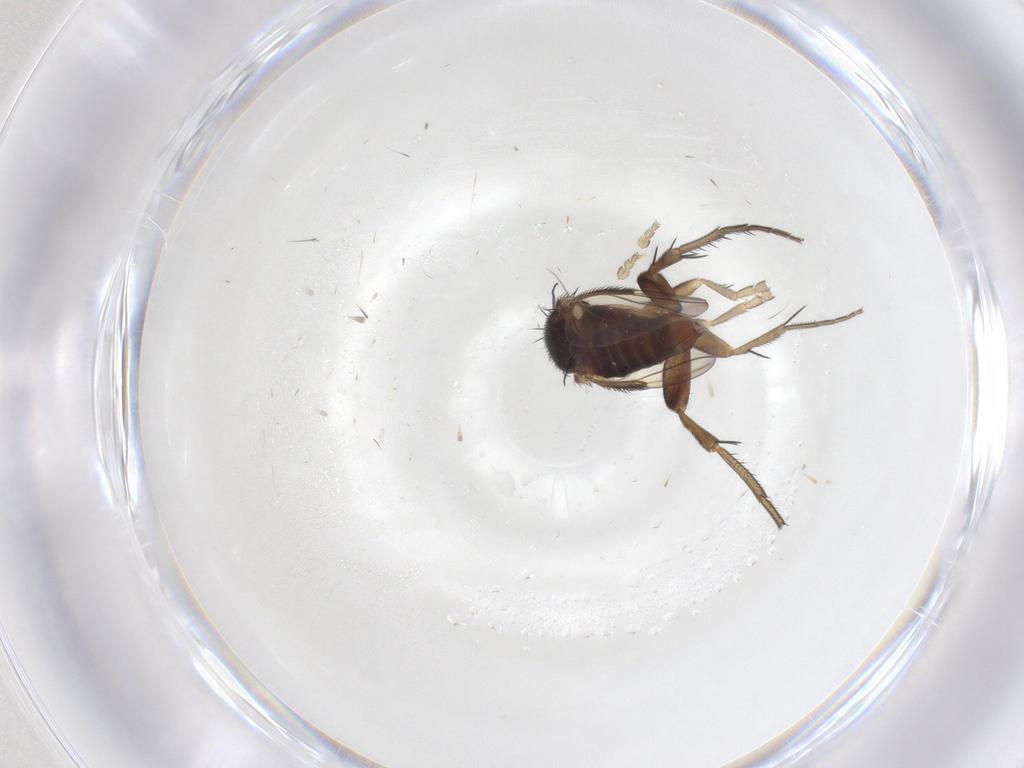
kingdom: Animalia
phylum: Arthropoda
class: Insecta
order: Diptera
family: Phoridae
